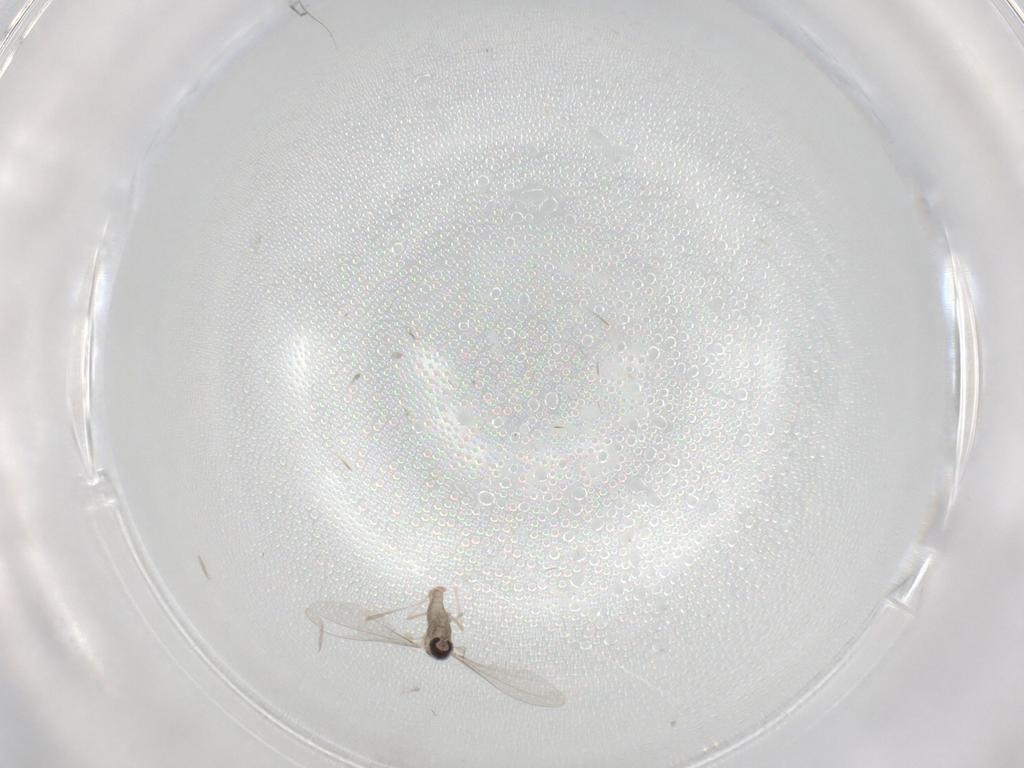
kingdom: Animalia
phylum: Arthropoda
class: Insecta
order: Diptera
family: Cecidomyiidae
